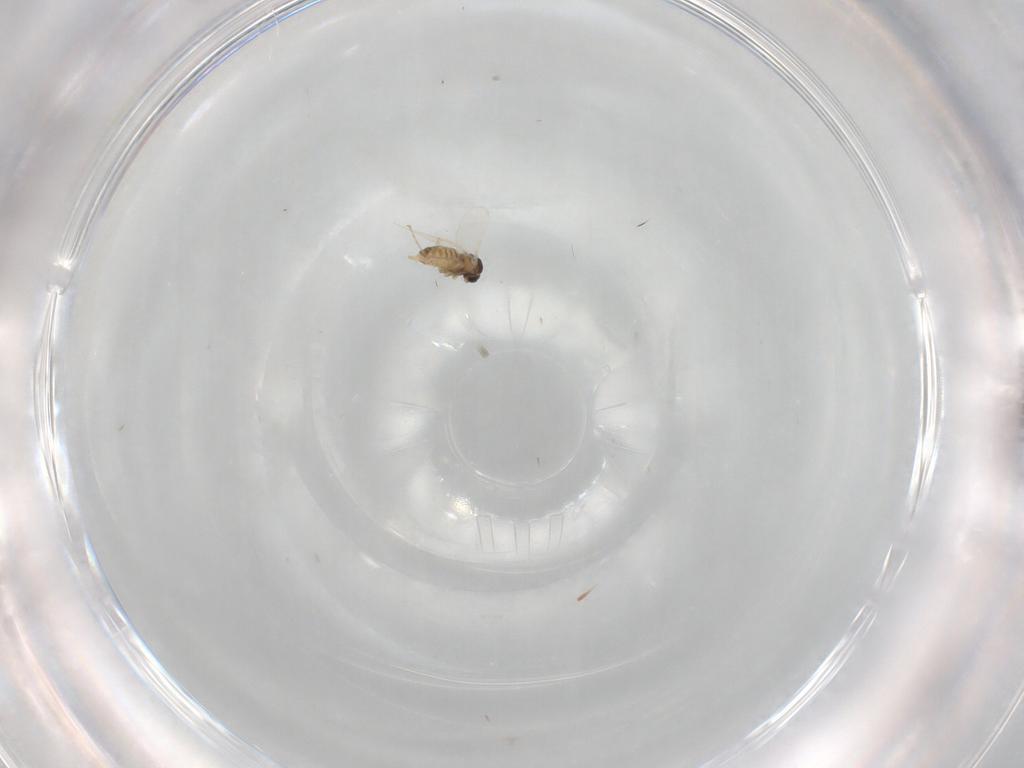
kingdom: Animalia
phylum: Arthropoda
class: Insecta
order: Diptera
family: Cecidomyiidae
